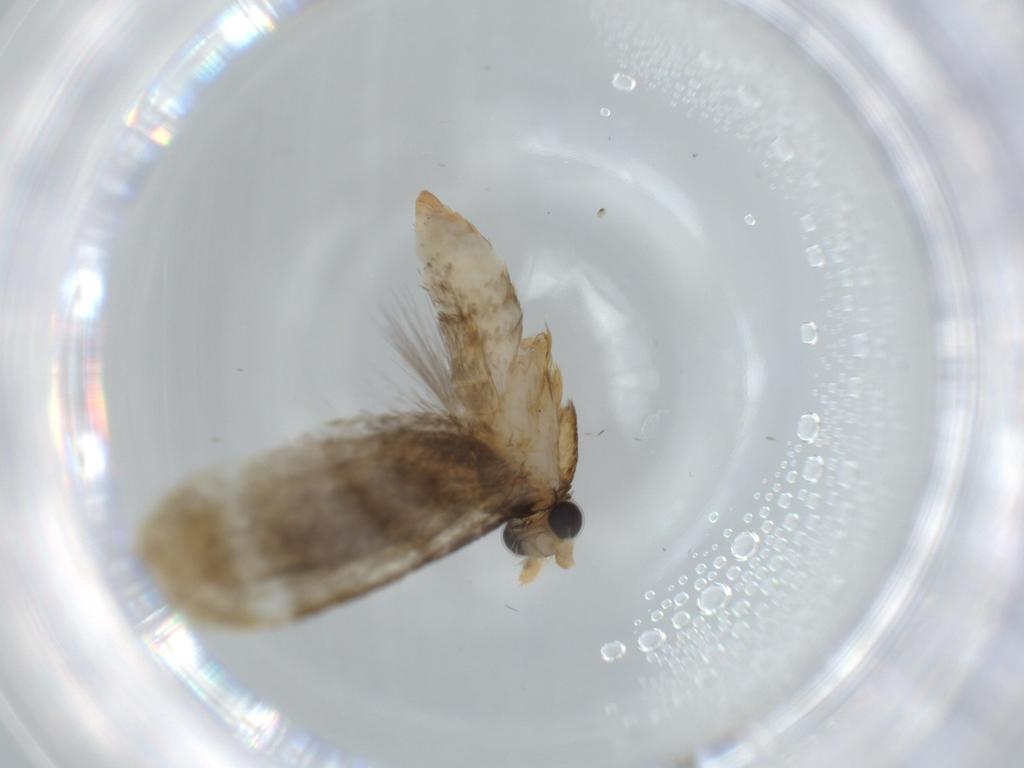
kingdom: Animalia
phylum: Arthropoda
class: Insecta
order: Lepidoptera
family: Tineidae
